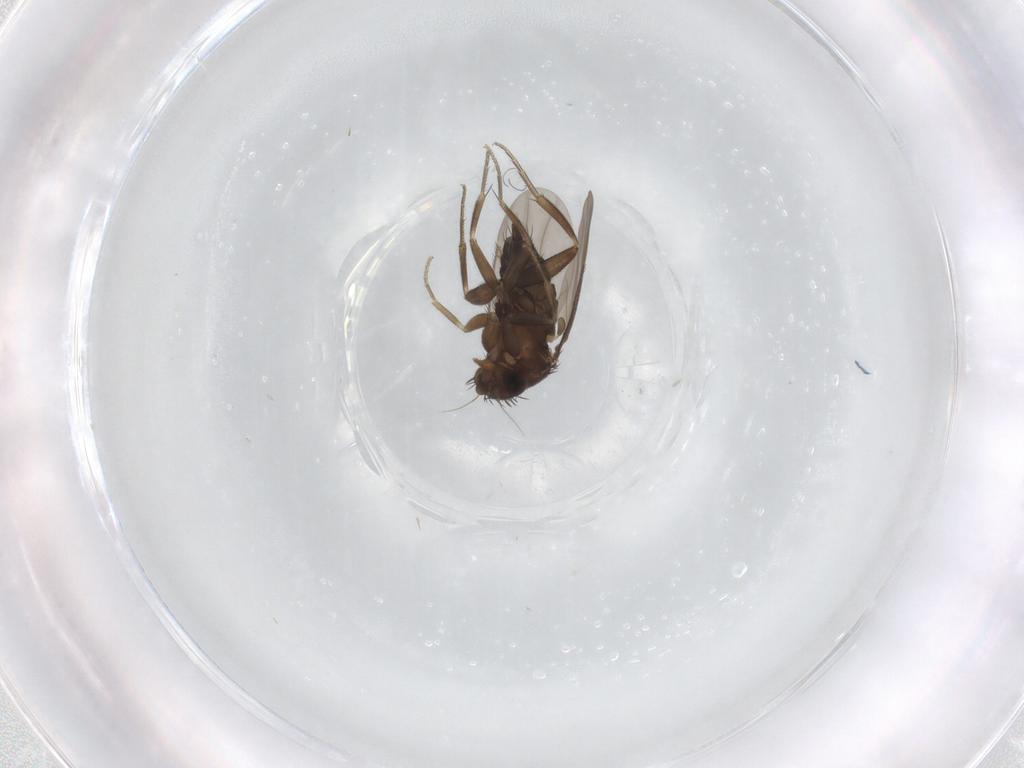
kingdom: Animalia
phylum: Arthropoda
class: Insecta
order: Diptera
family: Phoridae
